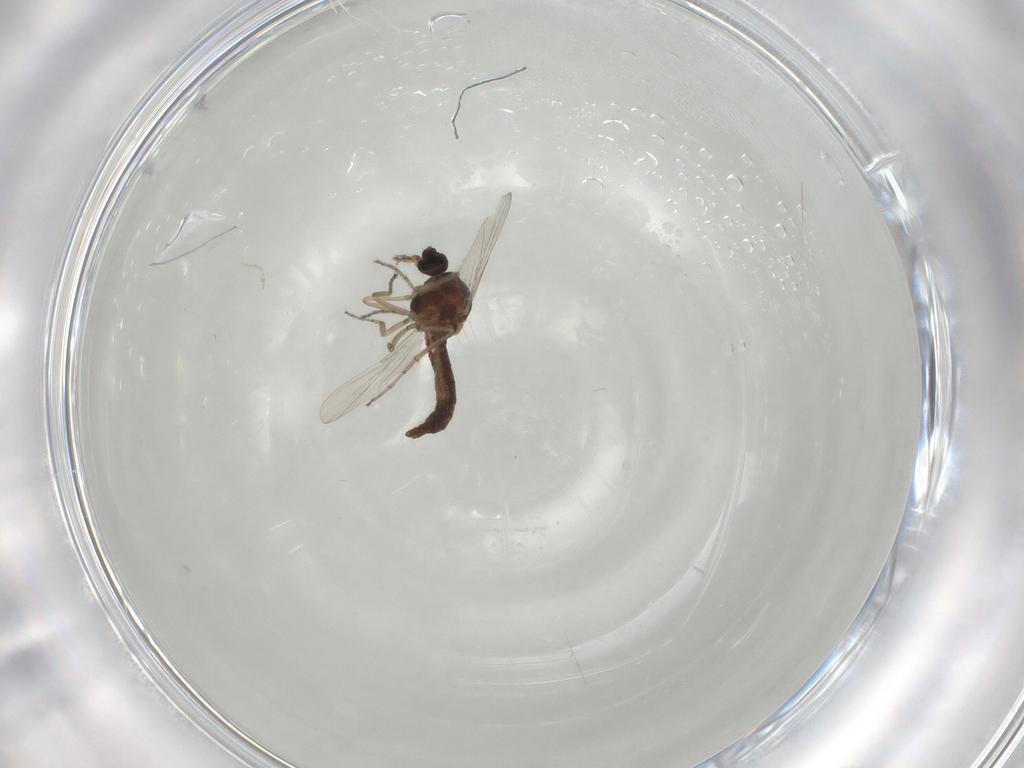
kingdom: Animalia
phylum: Arthropoda
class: Insecta
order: Diptera
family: Ceratopogonidae
